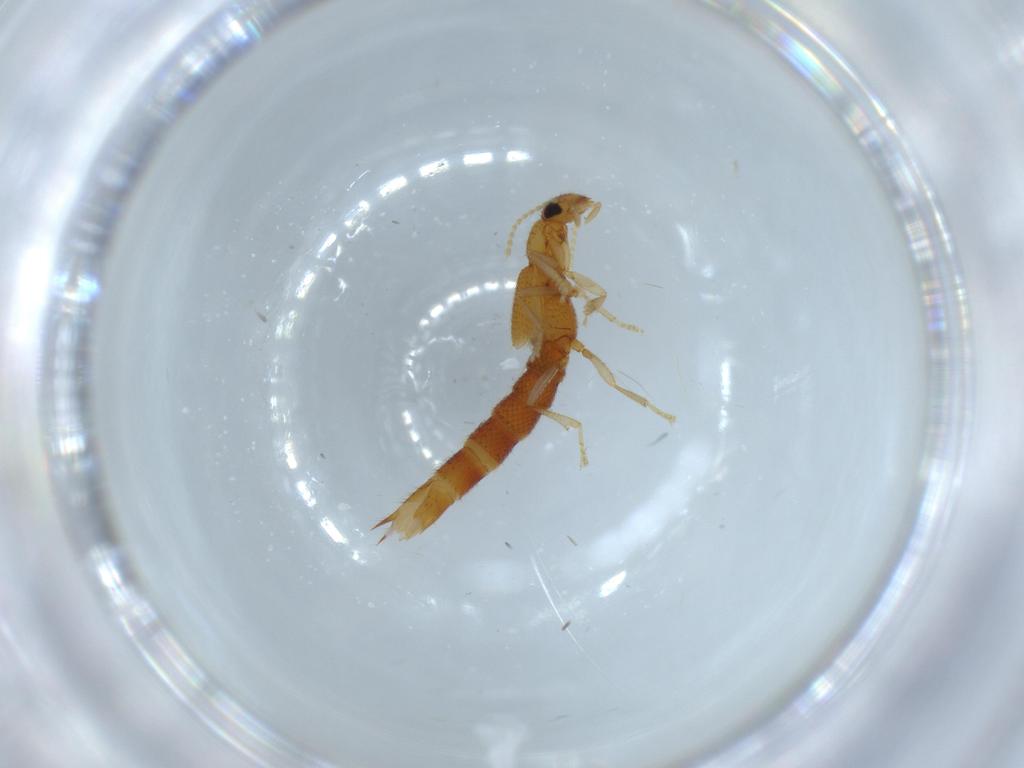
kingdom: Animalia
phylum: Arthropoda
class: Insecta
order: Coleoptera
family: Staphylinidae
